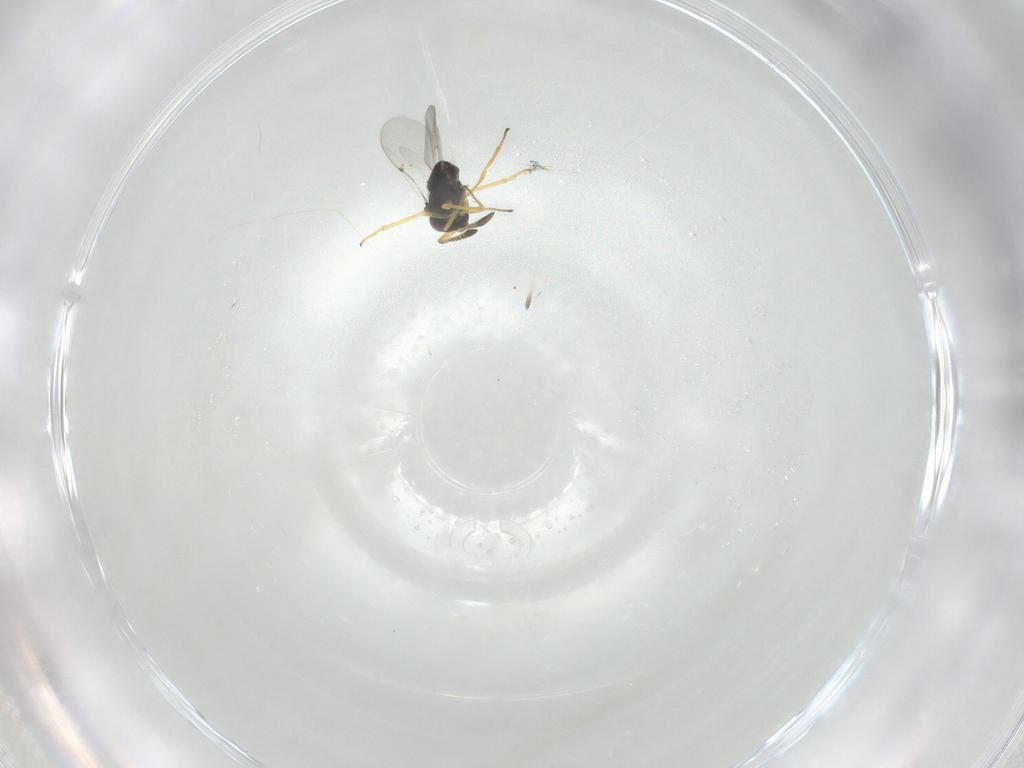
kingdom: Animalia
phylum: Arthropoda
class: Insecta
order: Hymenoptera
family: Encyrtidae
